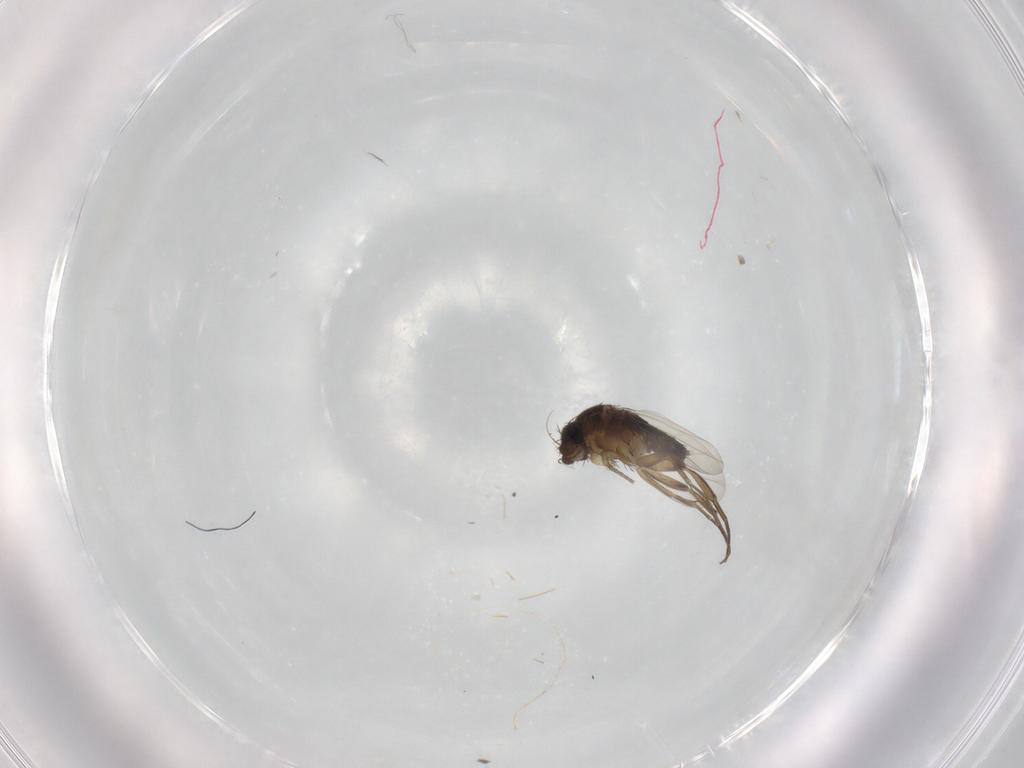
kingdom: Animalia
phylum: Arthropoda
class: Insecta
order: Diptera
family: Phoridae
